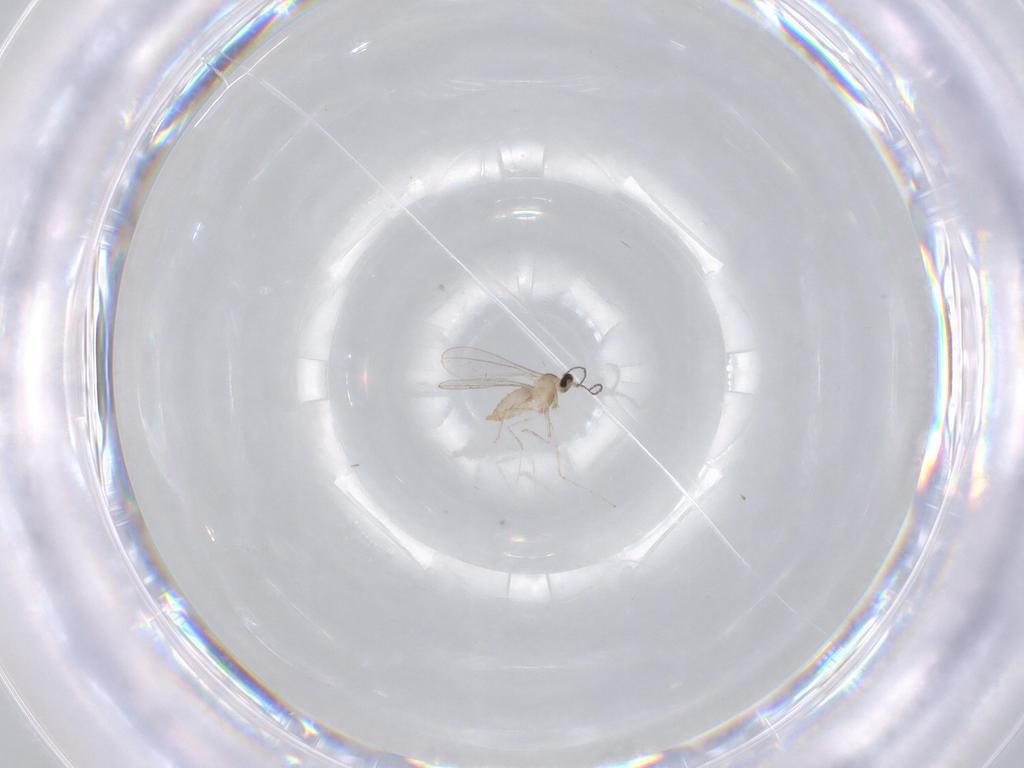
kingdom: Animalia
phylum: Arthropoda
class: Insecta
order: Diptera
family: Cecidomyiidae
